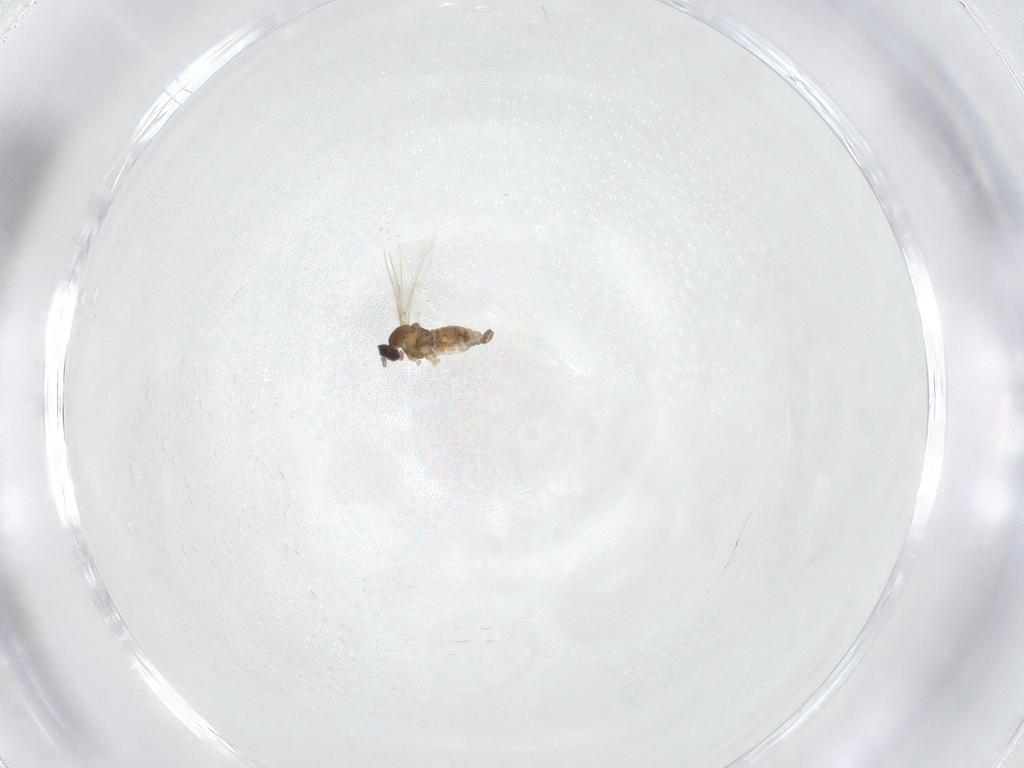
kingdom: Animalia
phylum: Arthropoda
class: Insecta
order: Diptera
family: Cecidomyiidae
